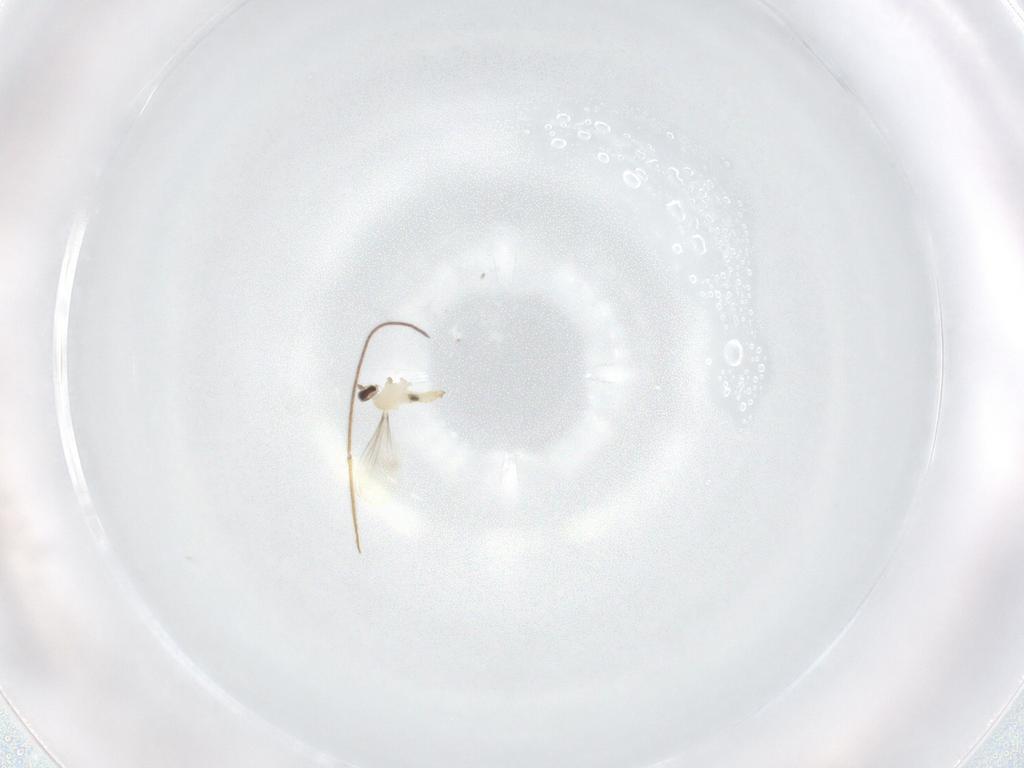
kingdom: Animalia
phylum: Arthropoda
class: Insecta
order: Diptera
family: Cecidomyiidae
